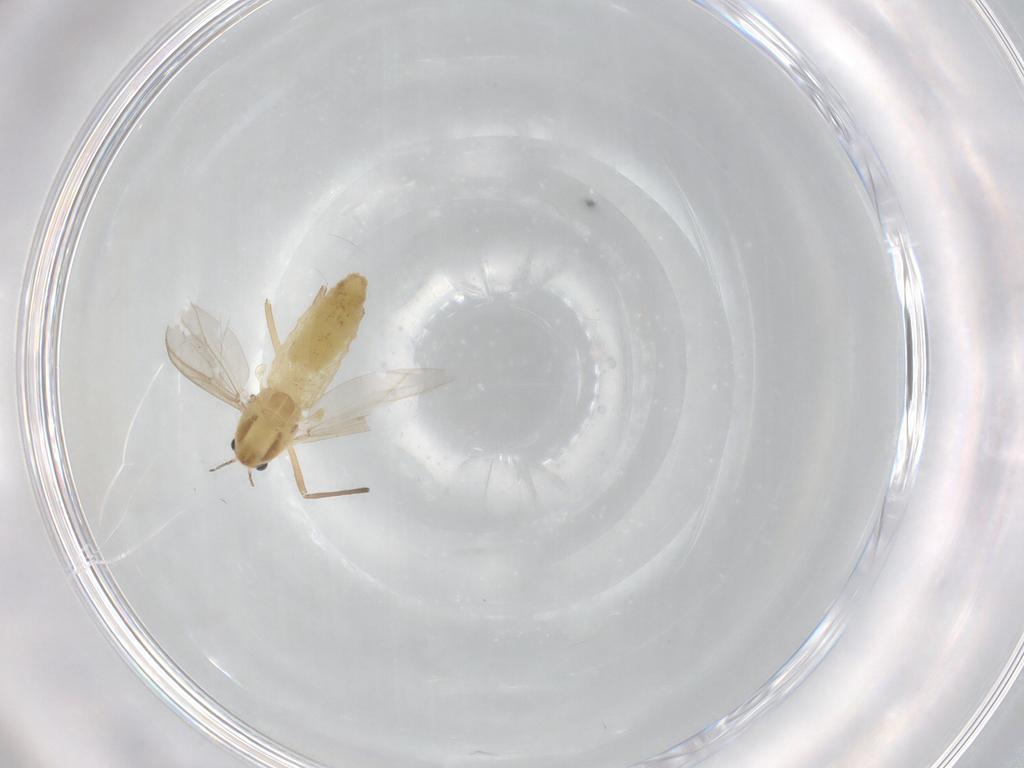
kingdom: Animalia
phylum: Arthropoda
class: Insecta
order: Diptera
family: Chironomidae
